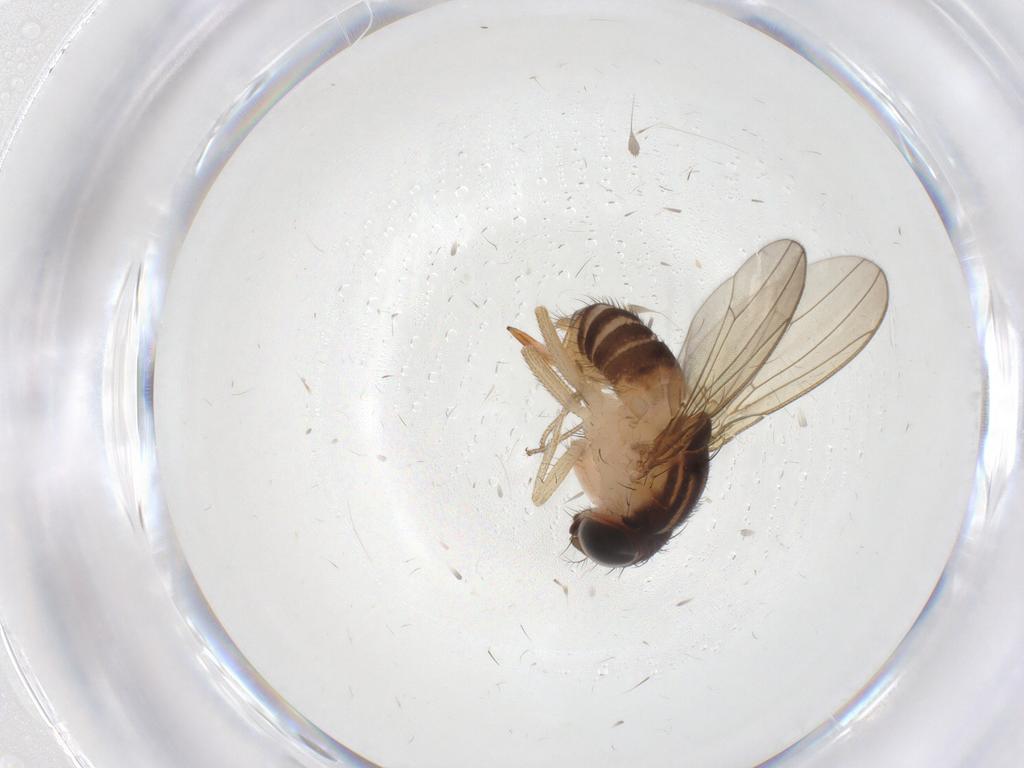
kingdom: Animalia
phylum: Arthropoda
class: Insecta
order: Diptera
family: Drosophilidae
